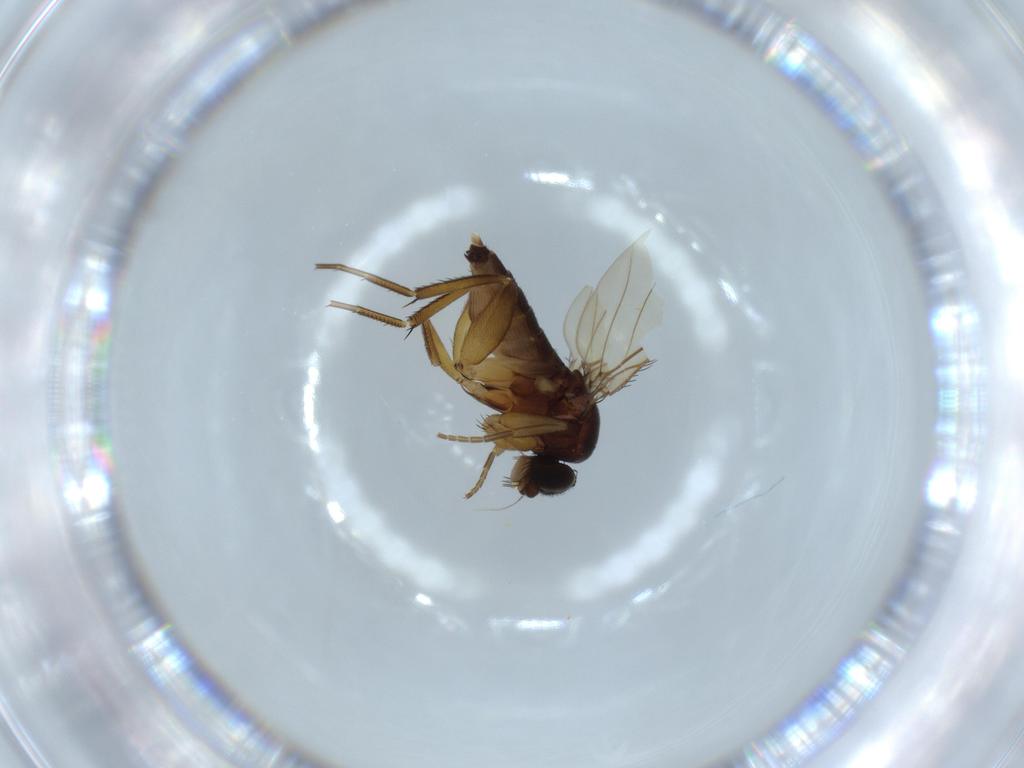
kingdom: Animalia
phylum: Arthropoda
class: Insecta
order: Diptera
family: Phoridae
